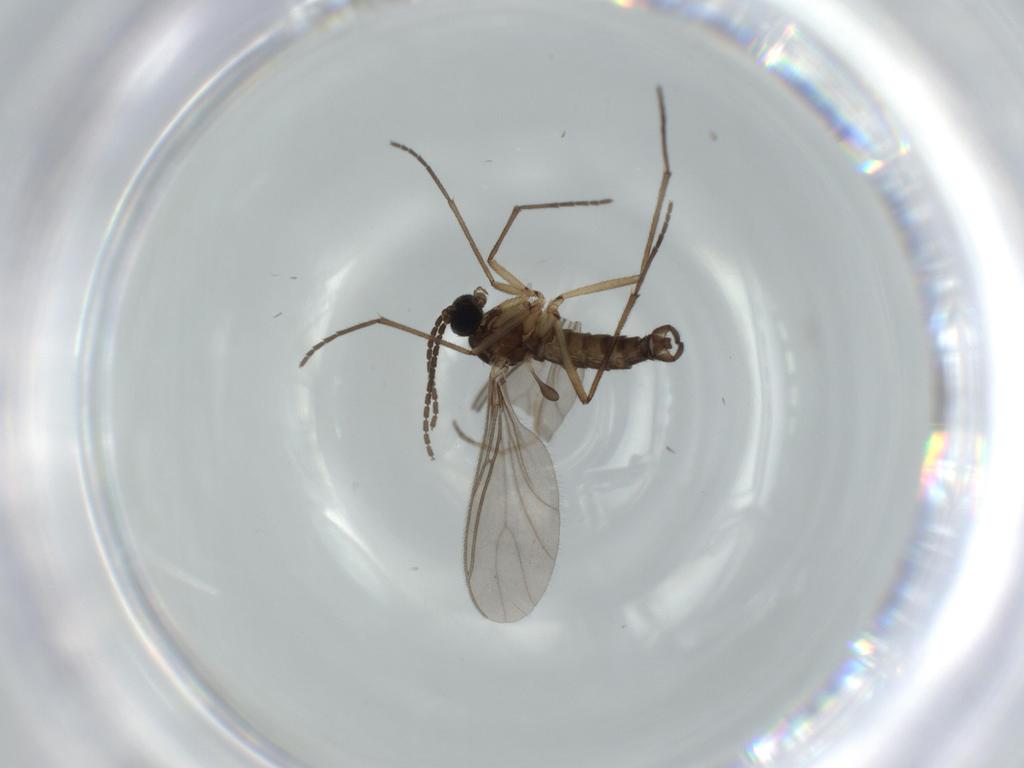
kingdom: Animalia
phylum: Arthropoda
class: Insecta
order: Diptera
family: Sciaridae
